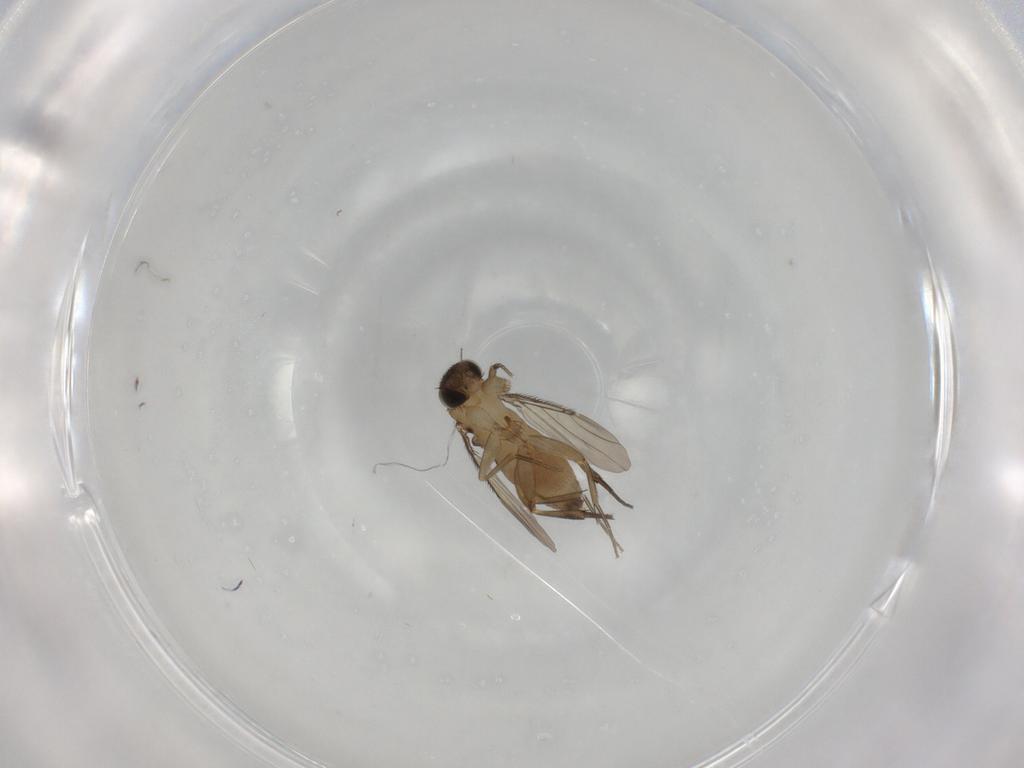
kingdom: Animalia
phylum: Arthropoda
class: Insecta
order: Diptera
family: Phoridae
